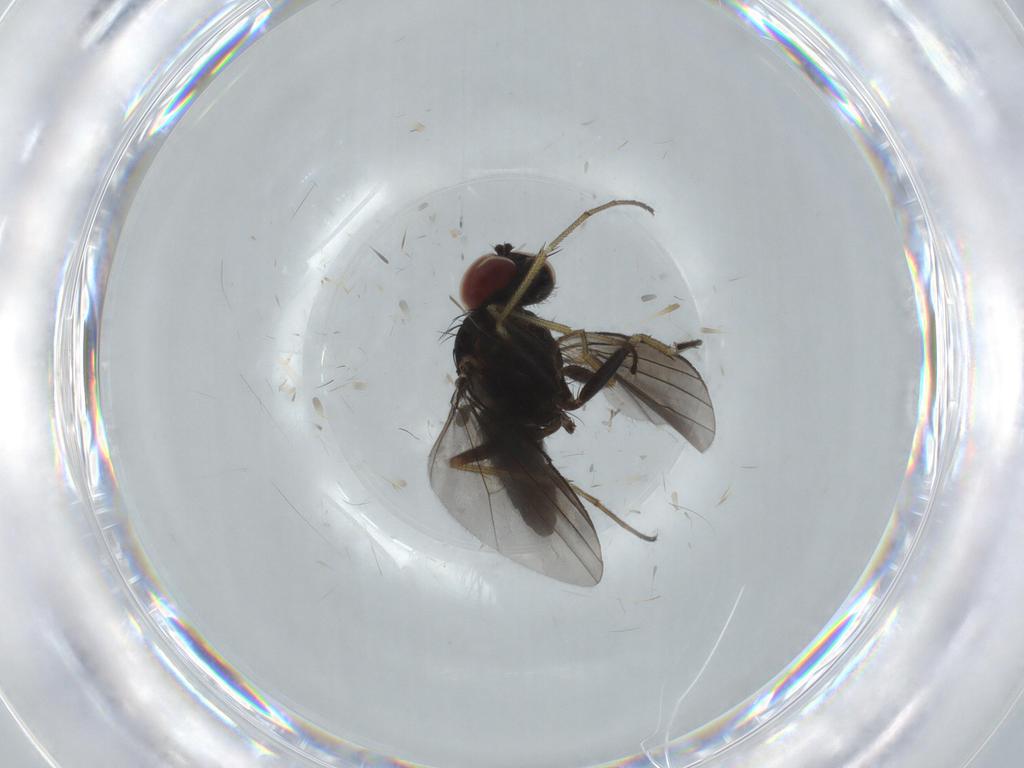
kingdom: Animalia
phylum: Arthropoda
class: Insecta
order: Diptera
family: Dolichopodidae
